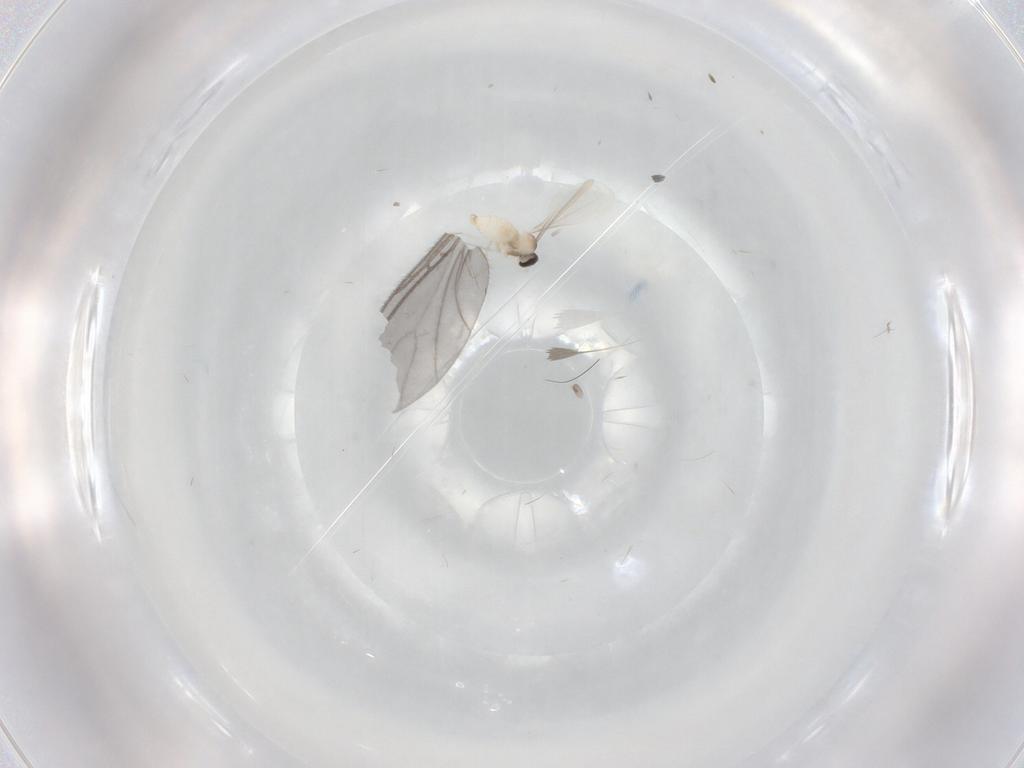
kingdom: Animalia
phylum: Arthropoda
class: Insecta
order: Diptera
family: Cecidomyiidae
